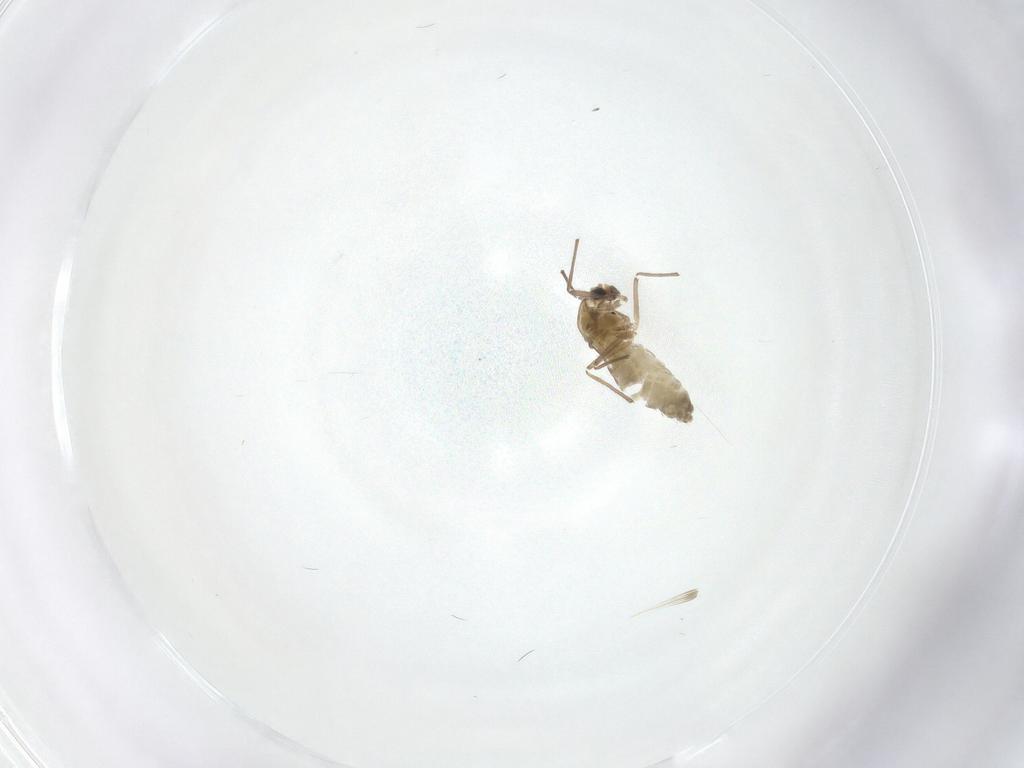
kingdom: Animalia
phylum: Arthropoda
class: Insecta
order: Diptera
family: Chironomidae
